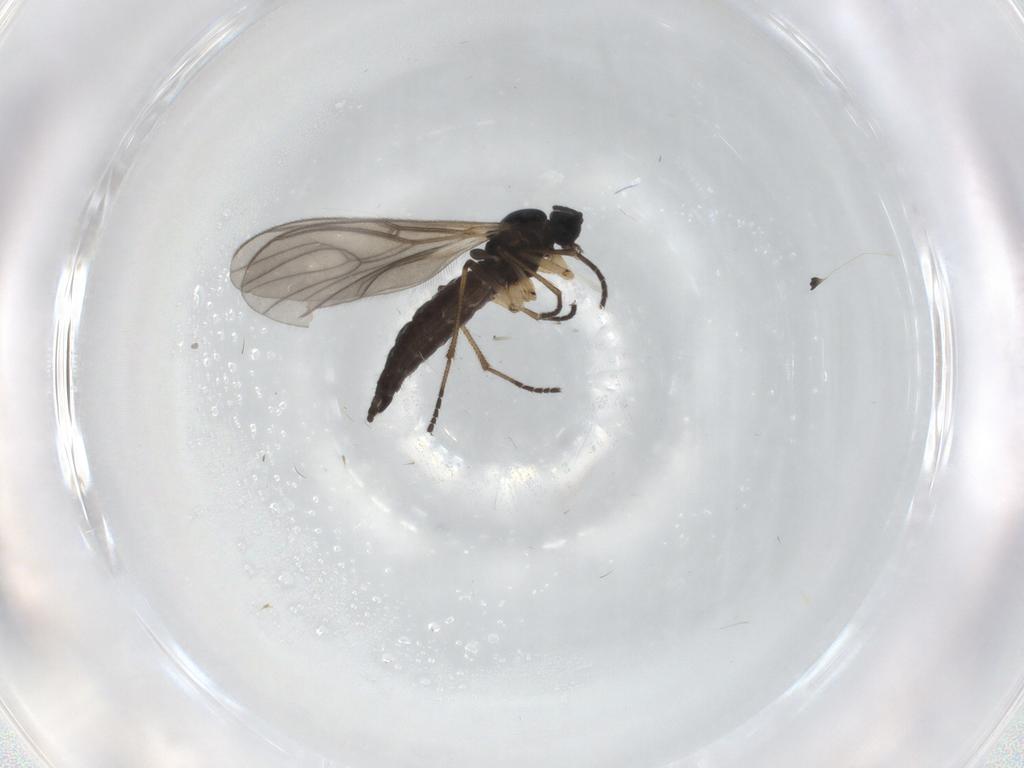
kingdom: Animalia
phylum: Arthropoda
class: Insecta
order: Diptera
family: Sciaridae
